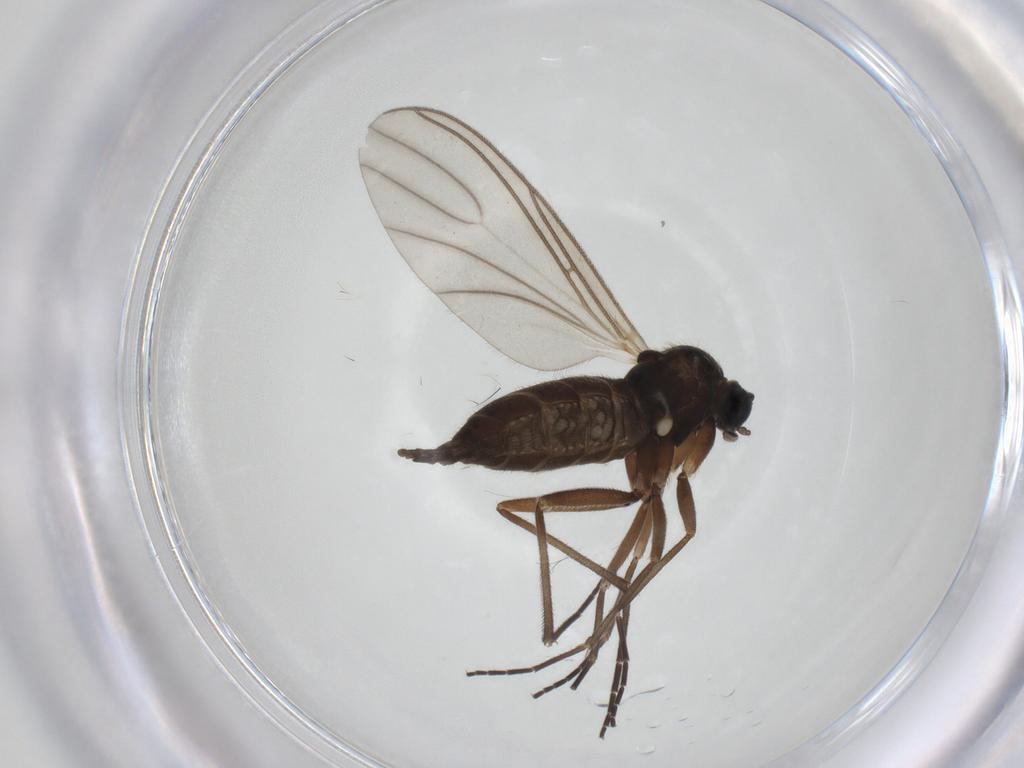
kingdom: Animalia
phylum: Arthropoda
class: Insecta
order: Diptera
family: Sciaridae
